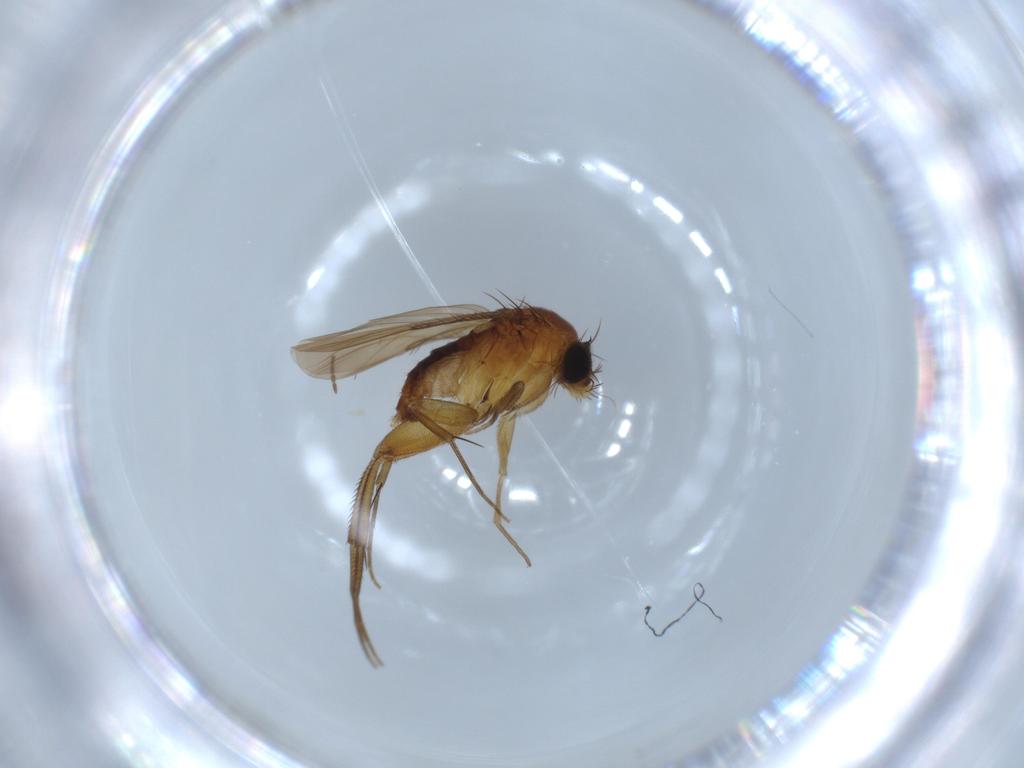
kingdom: Animalia
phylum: Arthropoda
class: Insecta
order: Diptera
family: Phoridae
